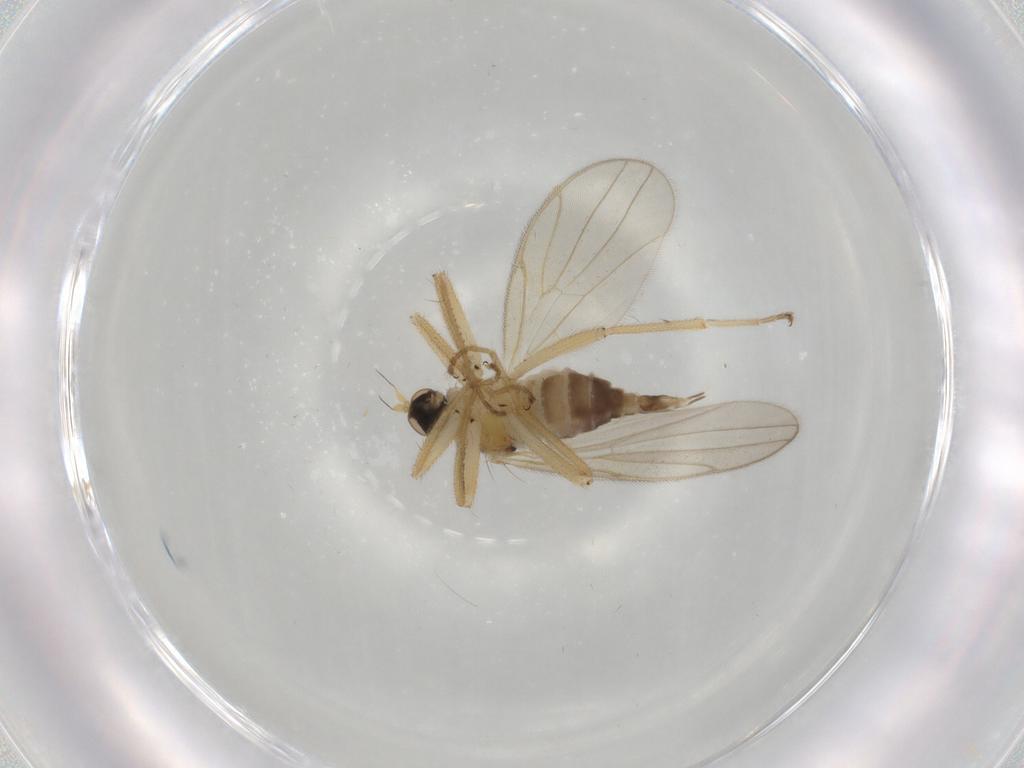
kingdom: Animalia
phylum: Arthropoda
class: Insecta
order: Diptera
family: Hybotidae
